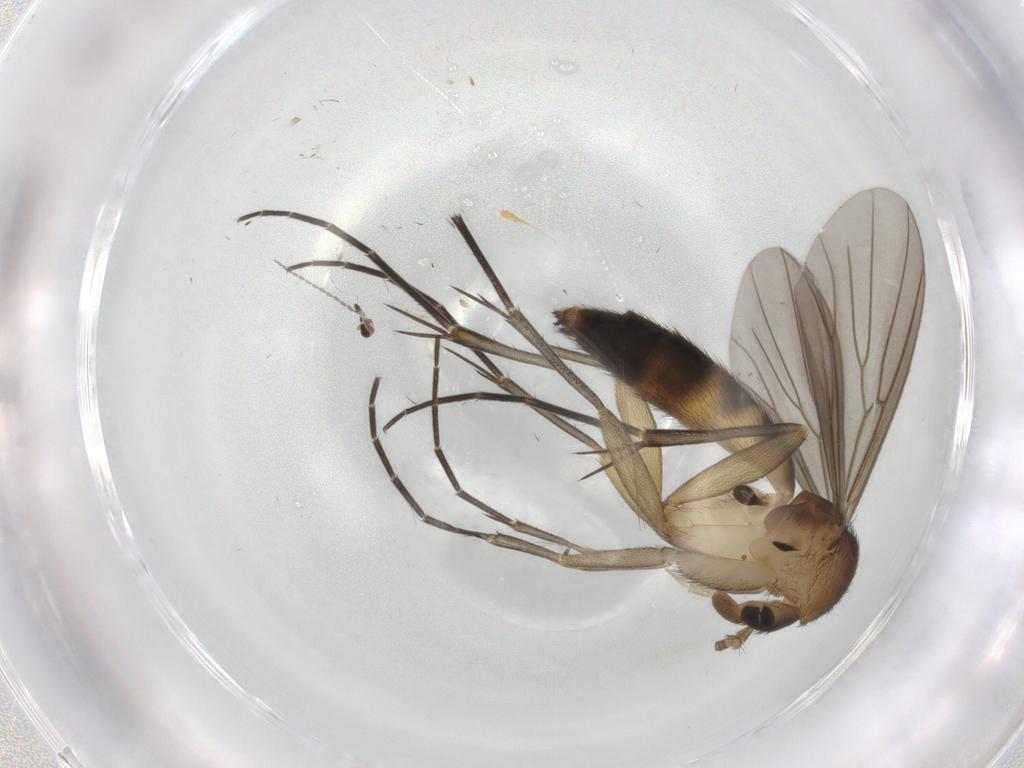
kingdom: Animalia
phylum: Arthropoda
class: Insecta
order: Diptera
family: Mycetophilidae
